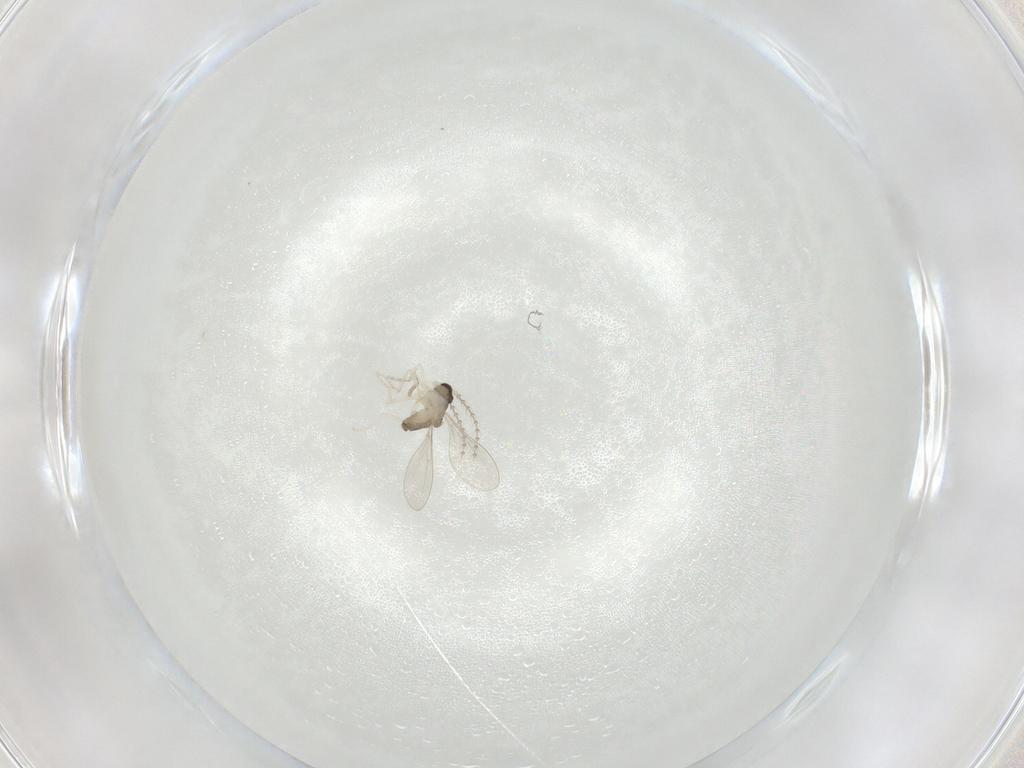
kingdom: Animalia
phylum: Arthropoda
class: Insecta
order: Diptera
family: Cecidomyiidae
